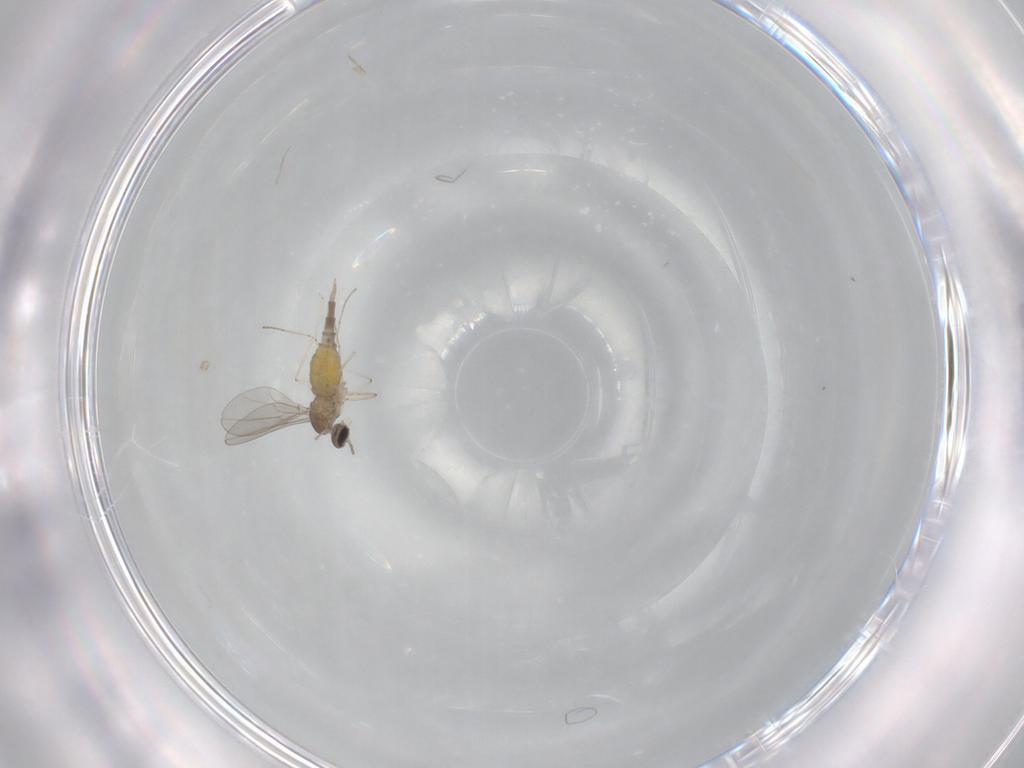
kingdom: Animalia
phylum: Arthropoda
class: Insecta
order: Diptera
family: Cecidomyiidae
